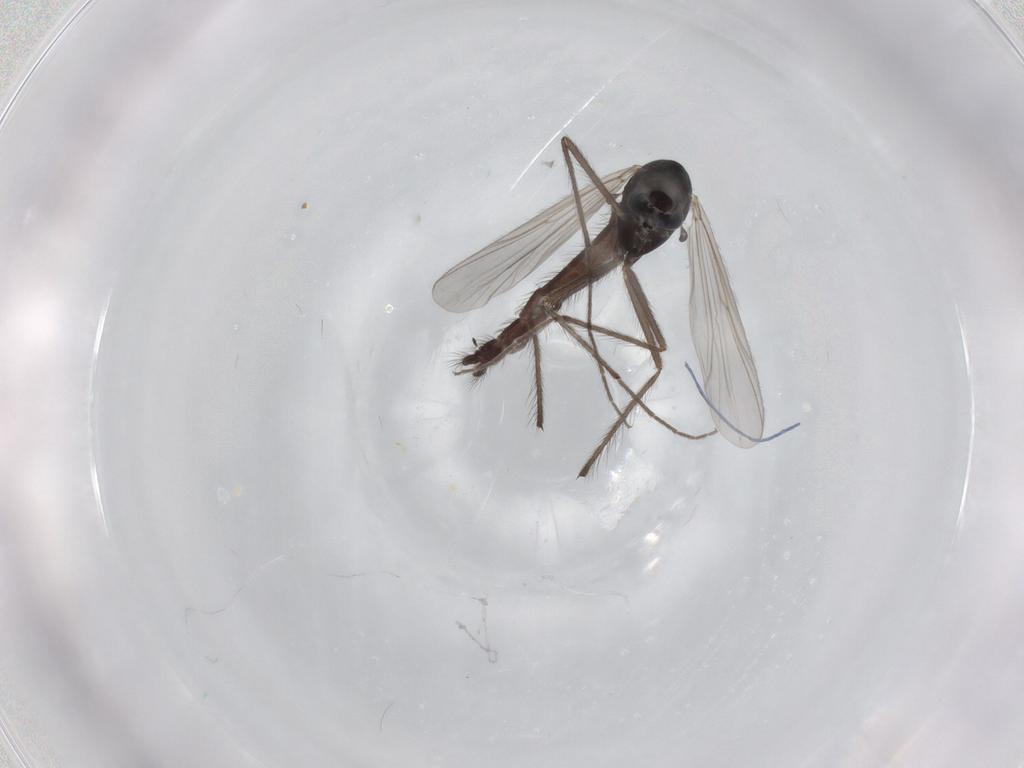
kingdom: Animalia
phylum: Arthropoda
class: Insecta
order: Diptera
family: Chironomidae
